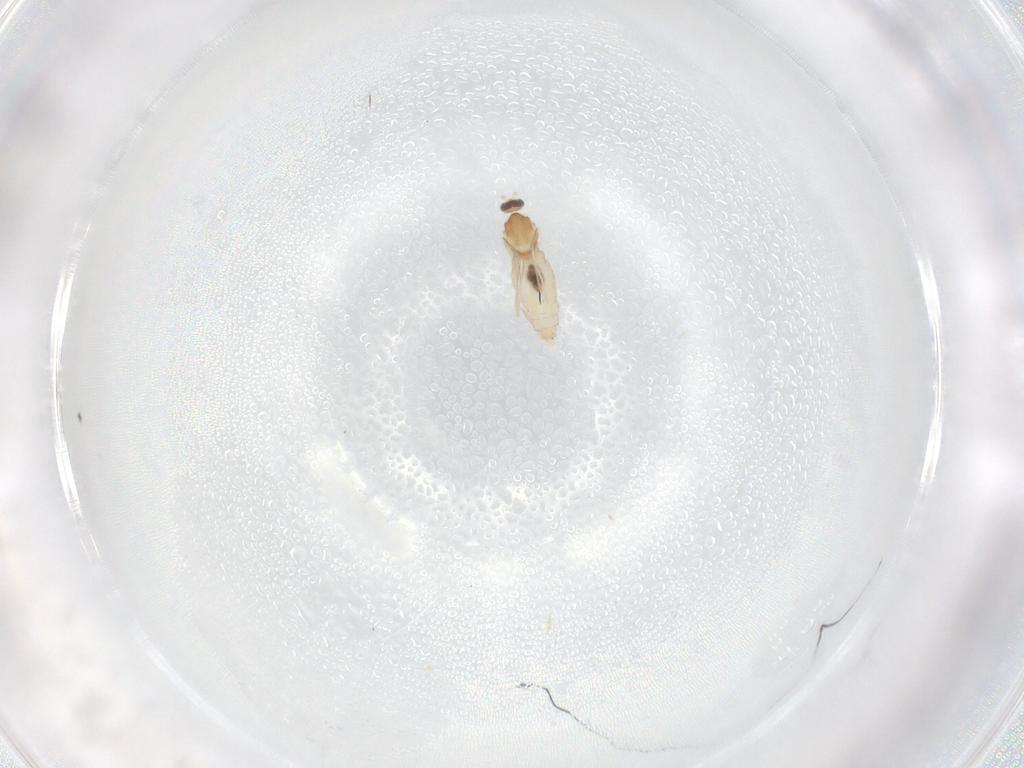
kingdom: Animalia
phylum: Arthropoda
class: Insecta
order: Diptera
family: Cecidomyiidae
